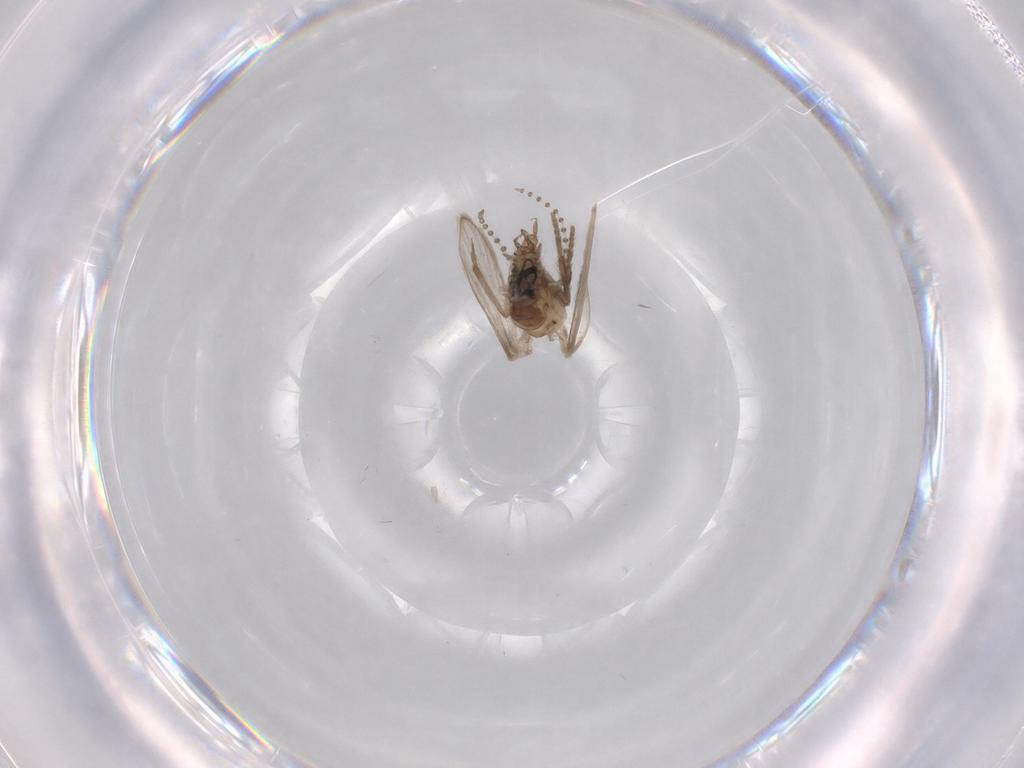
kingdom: Animalia
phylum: Arthropoda
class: Insecta
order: Diptera
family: Psychodidae
